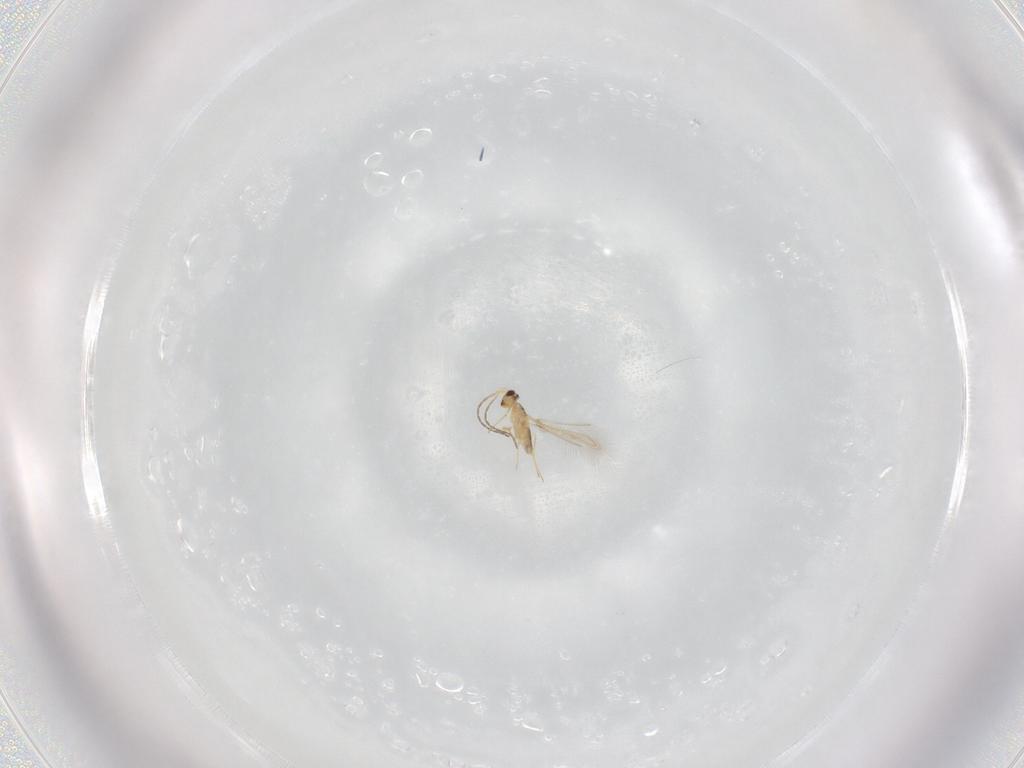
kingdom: Animalia
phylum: Arthropoda
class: Insecta
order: Hymenoptera
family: Mymaridae
